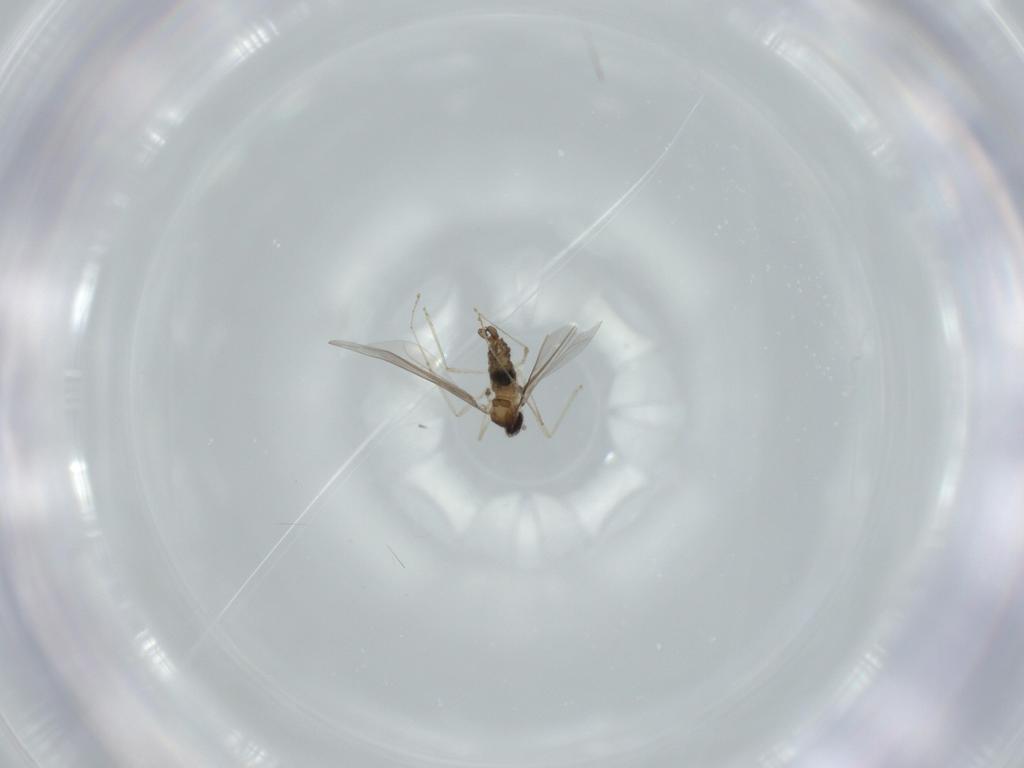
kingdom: Animalia
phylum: Arthropoda
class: Insecta
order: Diptera
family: Cecidomyiidae
